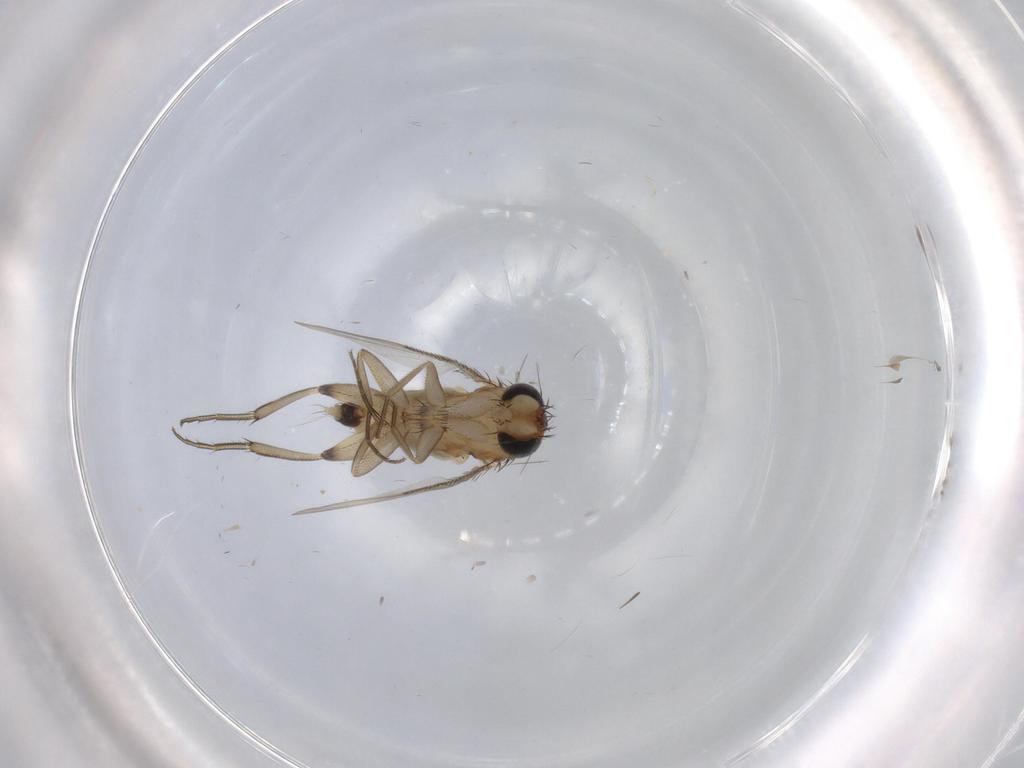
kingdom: Animalia
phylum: Arthropoda
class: Insecta
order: Diptera
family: Phoridae
